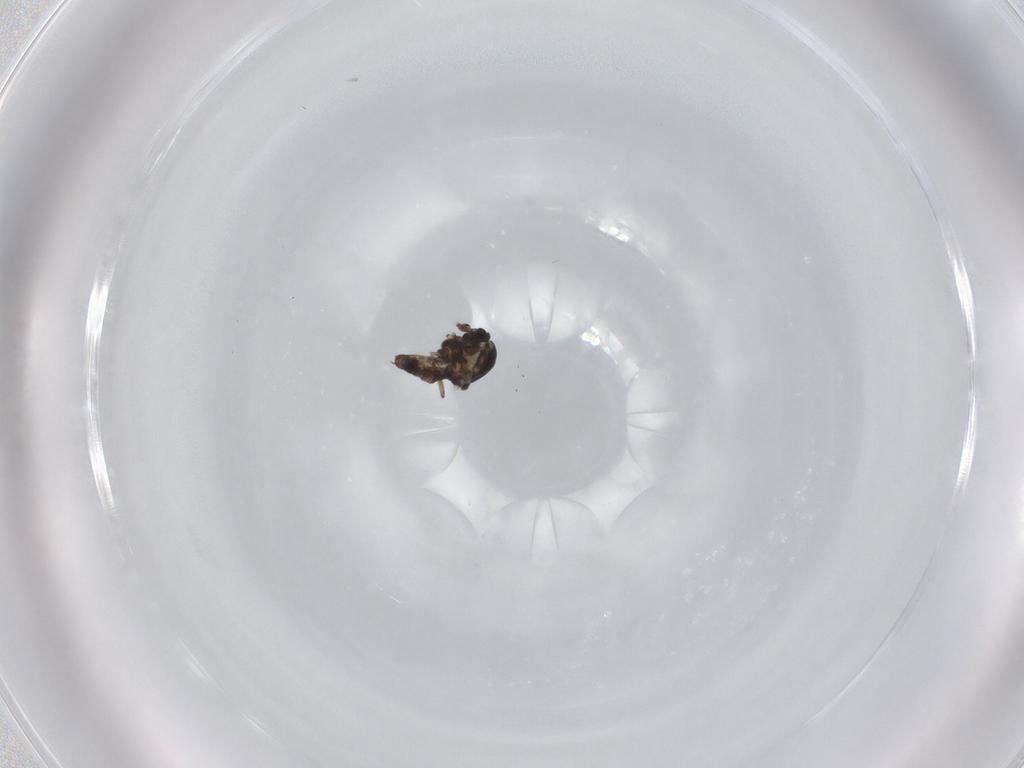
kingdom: Animalia
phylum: Arthropoda
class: Insecta
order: Diptera
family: Ceratopogonidae
